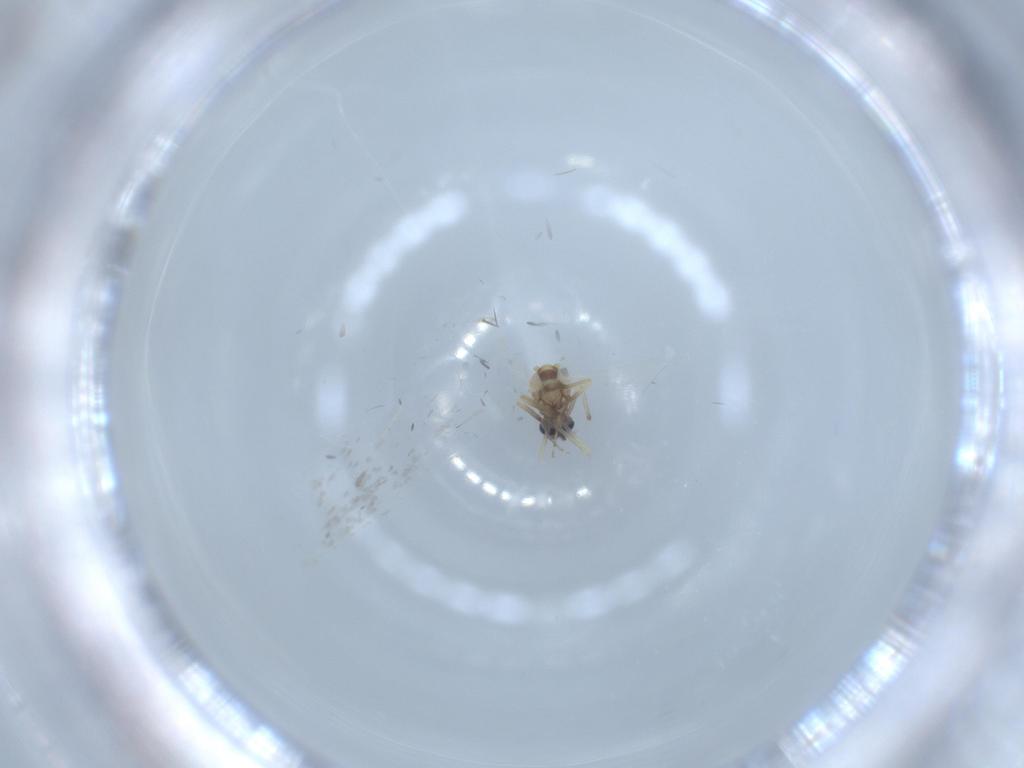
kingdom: Animalia
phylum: Arthropoda
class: Insecta
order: Diptera
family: Ceratopogonidae
